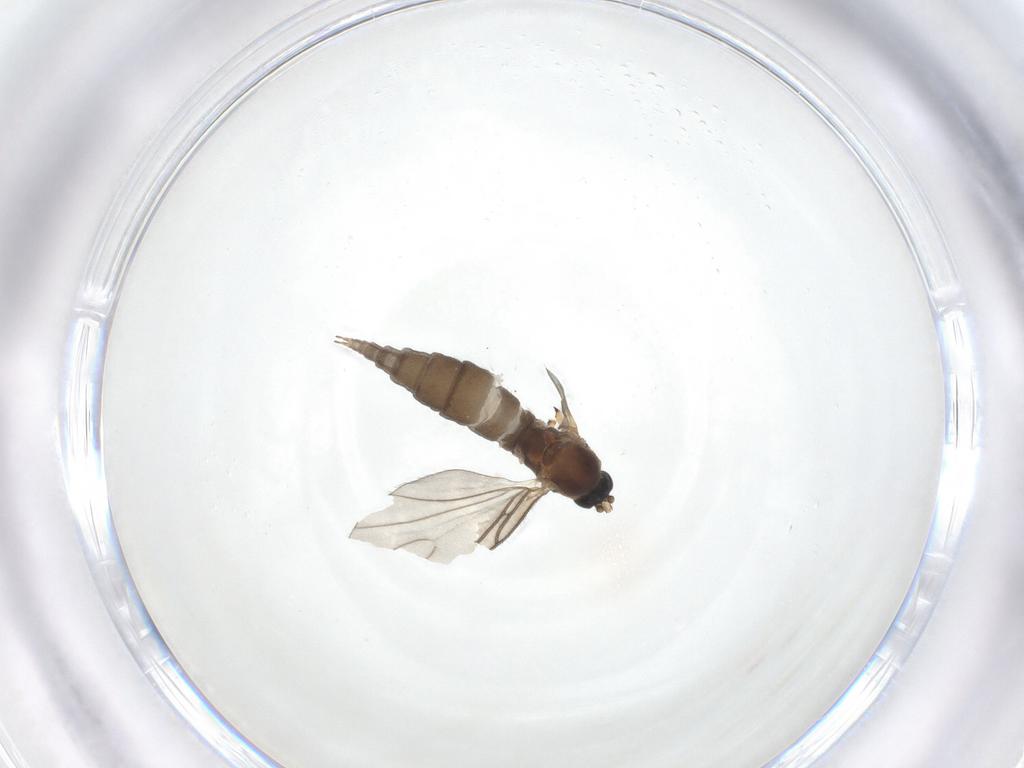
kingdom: Animalia
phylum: Arthropoda
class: Insecta
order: Diptera
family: Sciaridae
